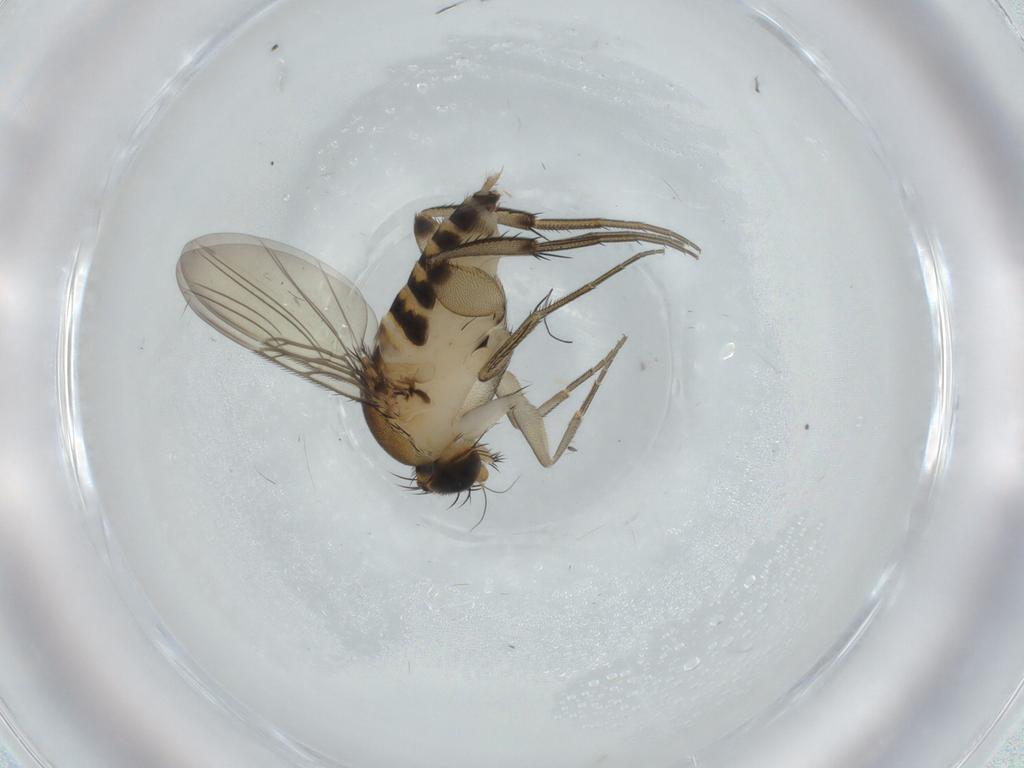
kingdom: Animalia
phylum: Arthropoda
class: Insecta
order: Diptera
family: Phoridae
